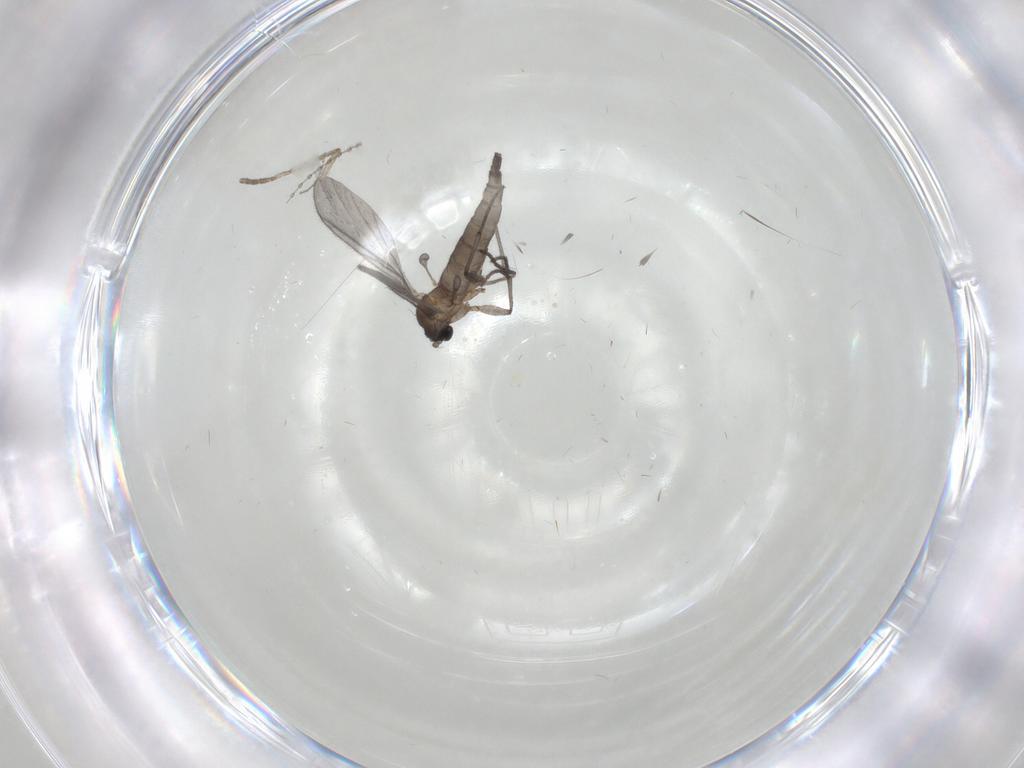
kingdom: Animalia
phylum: Arthropoda
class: Insecta
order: Diptera
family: Sciaridae
